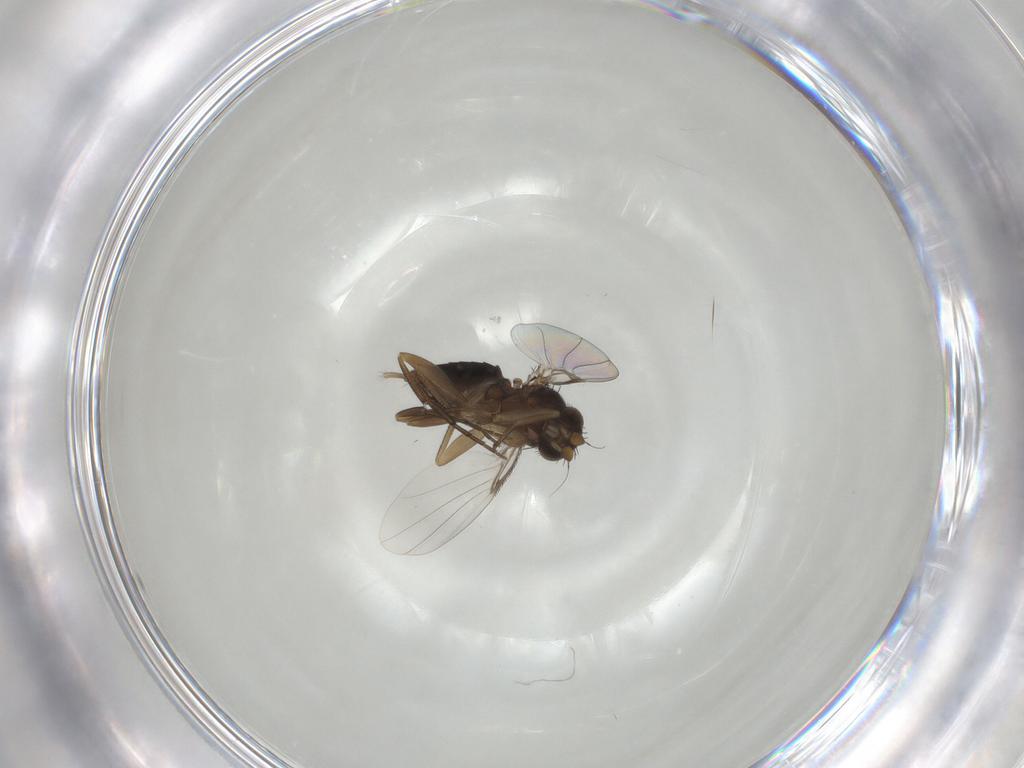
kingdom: Animalia
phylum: Arthropoda
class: Insecta
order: Diptera
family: Phoridae
